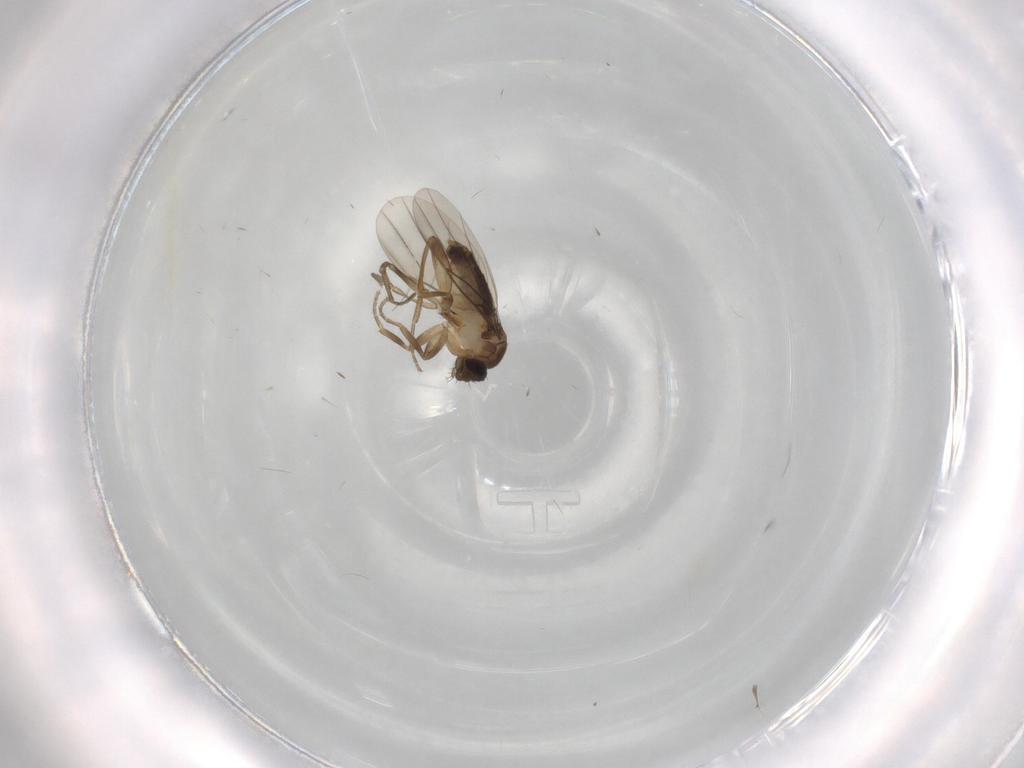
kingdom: Animalia
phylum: Arthropoda
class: Insecta
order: Diptera
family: Phoridae
